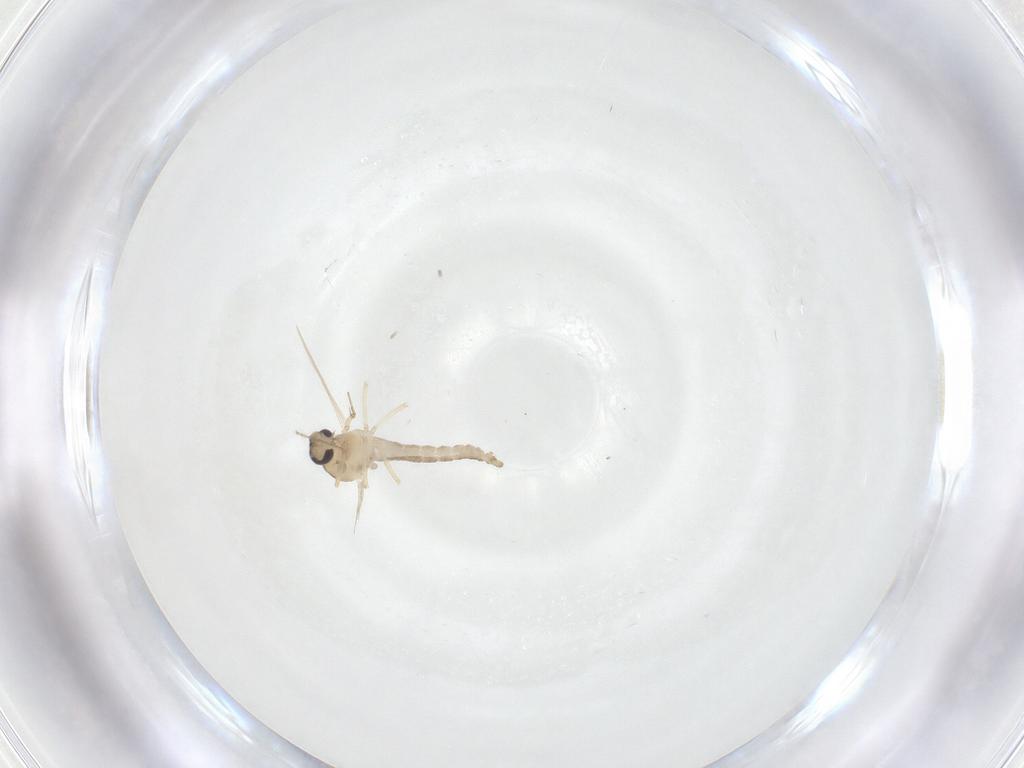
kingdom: Animalia
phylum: Arthropoda
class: Insecta
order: Diptera
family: Ceratopogonidae
